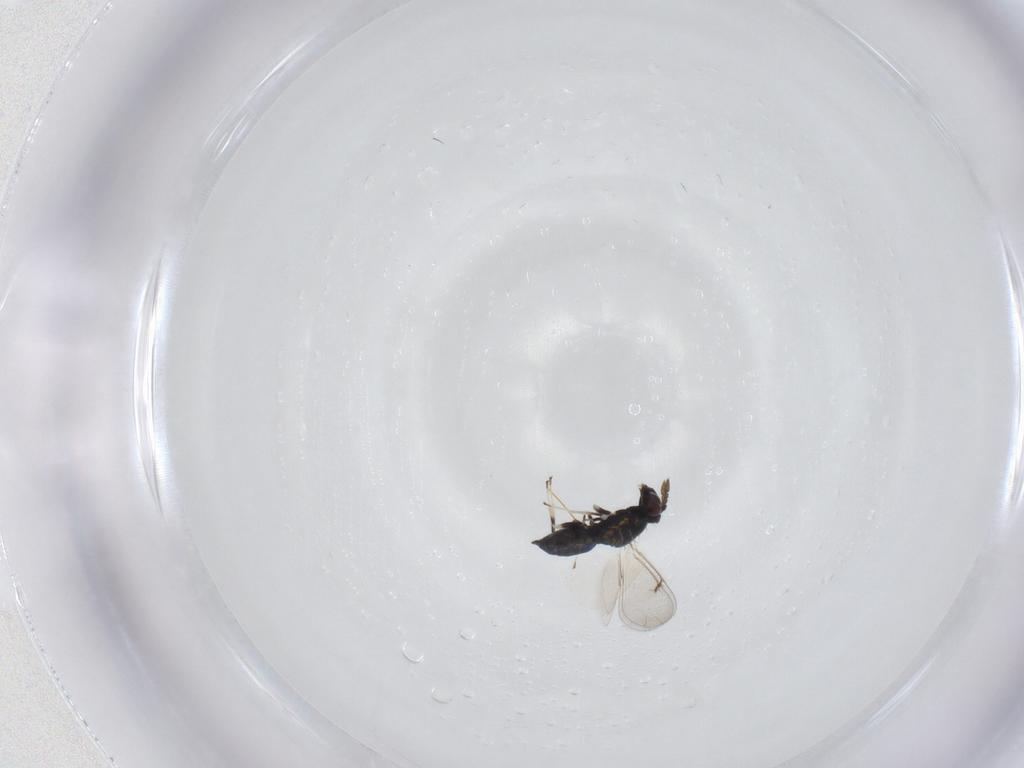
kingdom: Animalia
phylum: Arthropoda
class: Insecta
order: Hymenoptera
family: Eulophidae
